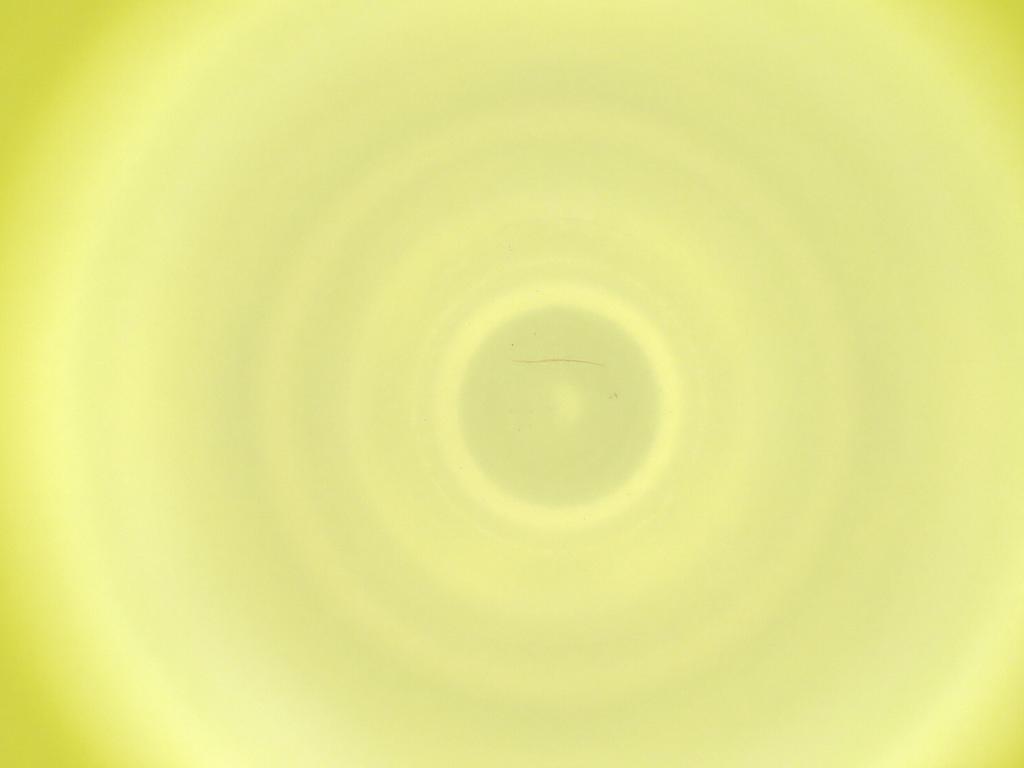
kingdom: Animalia
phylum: Arthropoda
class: Insecta
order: Diptera
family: Cecidomyiidae
